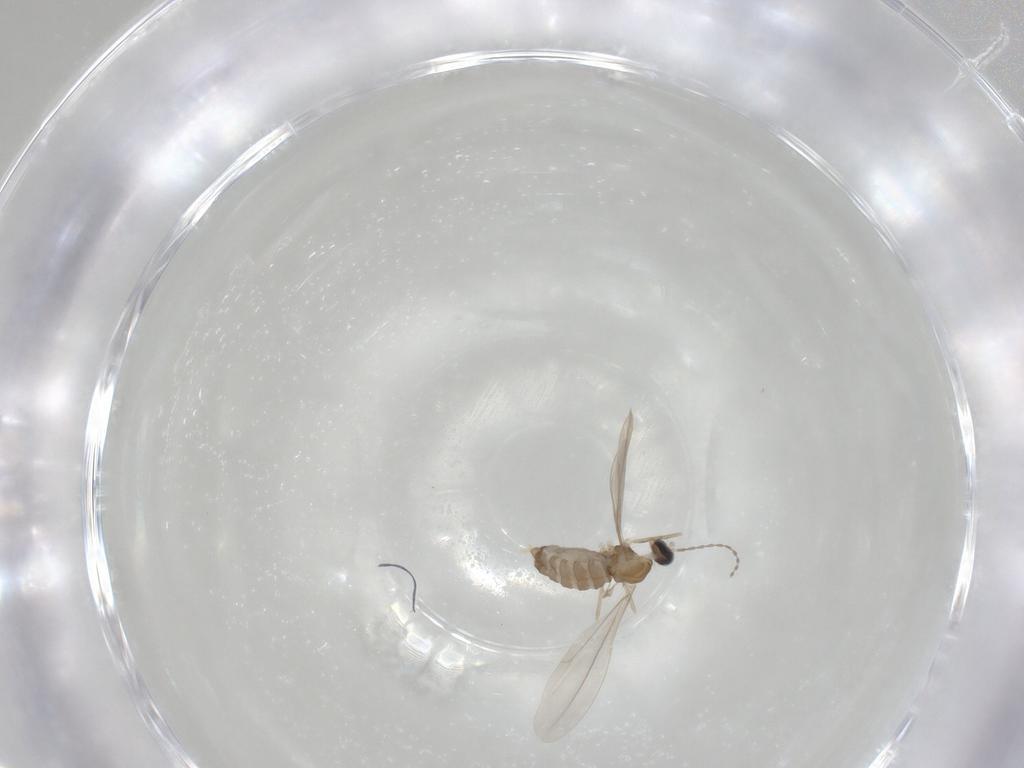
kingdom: Animalia
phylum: Arthropoda
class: Insecta
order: Diptera
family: Cecidomyiidae
